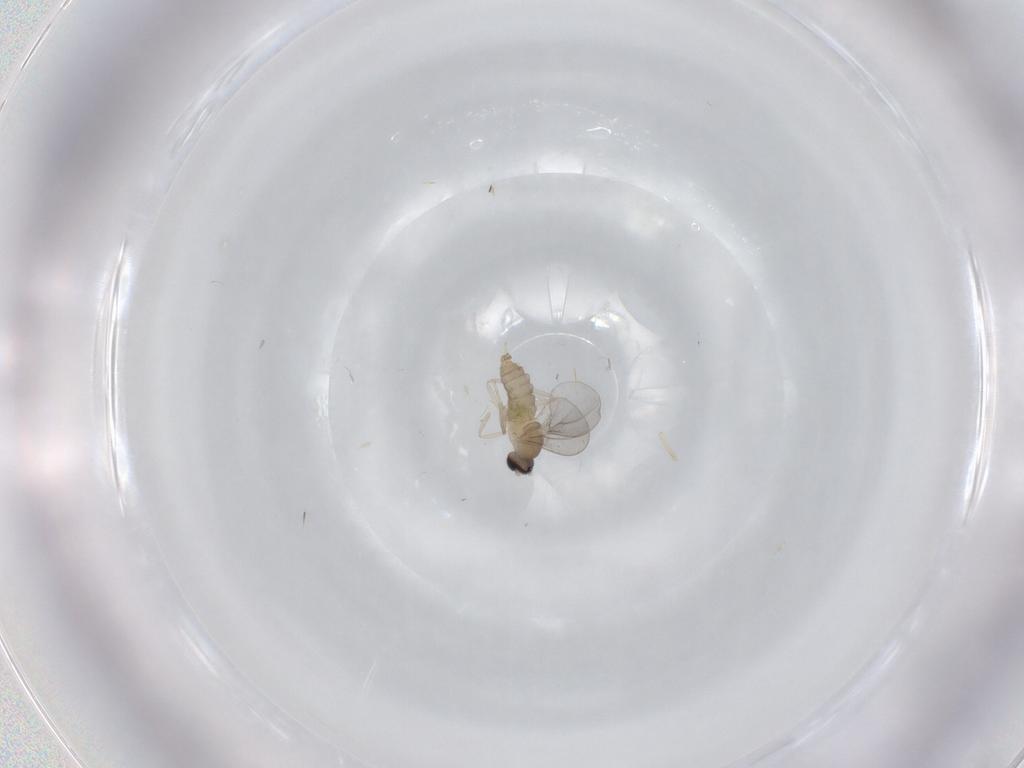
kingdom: Animalia
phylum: Arthropoda
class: Insecta
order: Diptera
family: Cecidomyiidae
